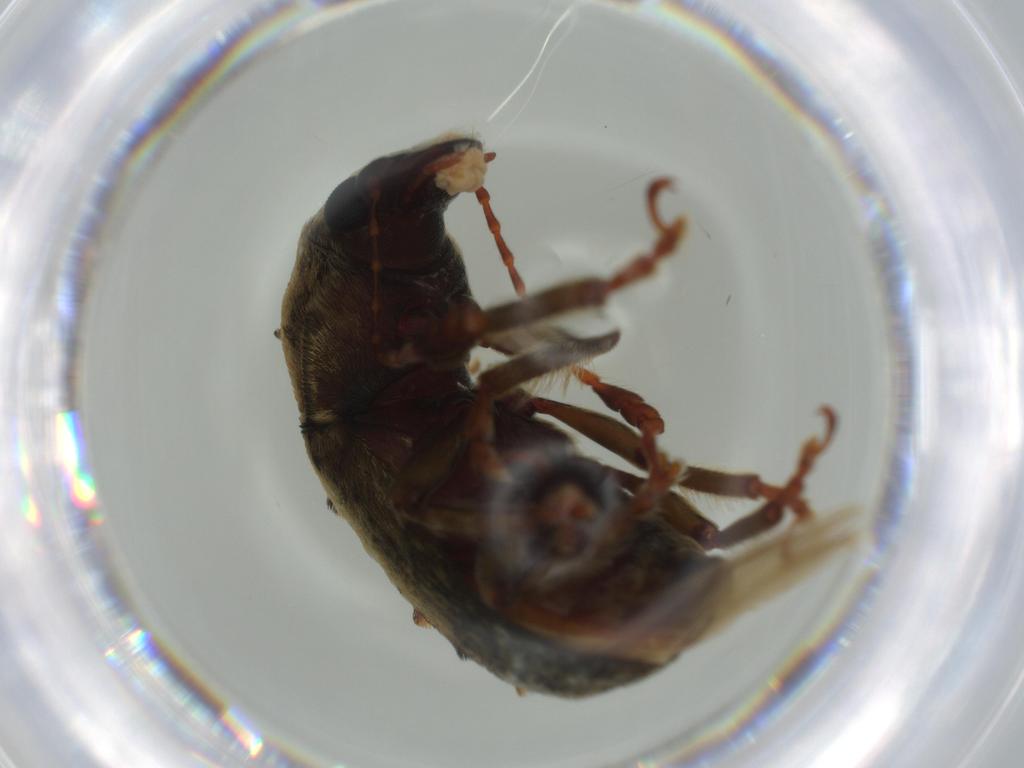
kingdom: Animalia
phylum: Arthropoda
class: Insecta
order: Coleoptera
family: Anthribidae
